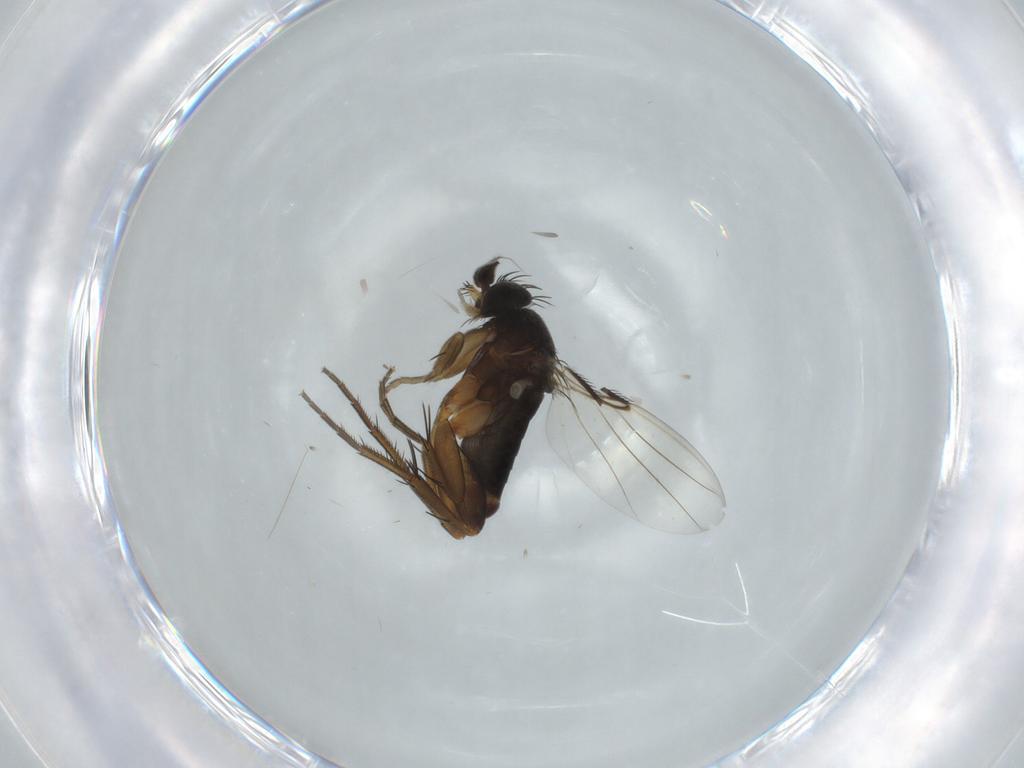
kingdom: Animalia
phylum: Arthropoda
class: Insecta
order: Diptera
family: Phoridae
